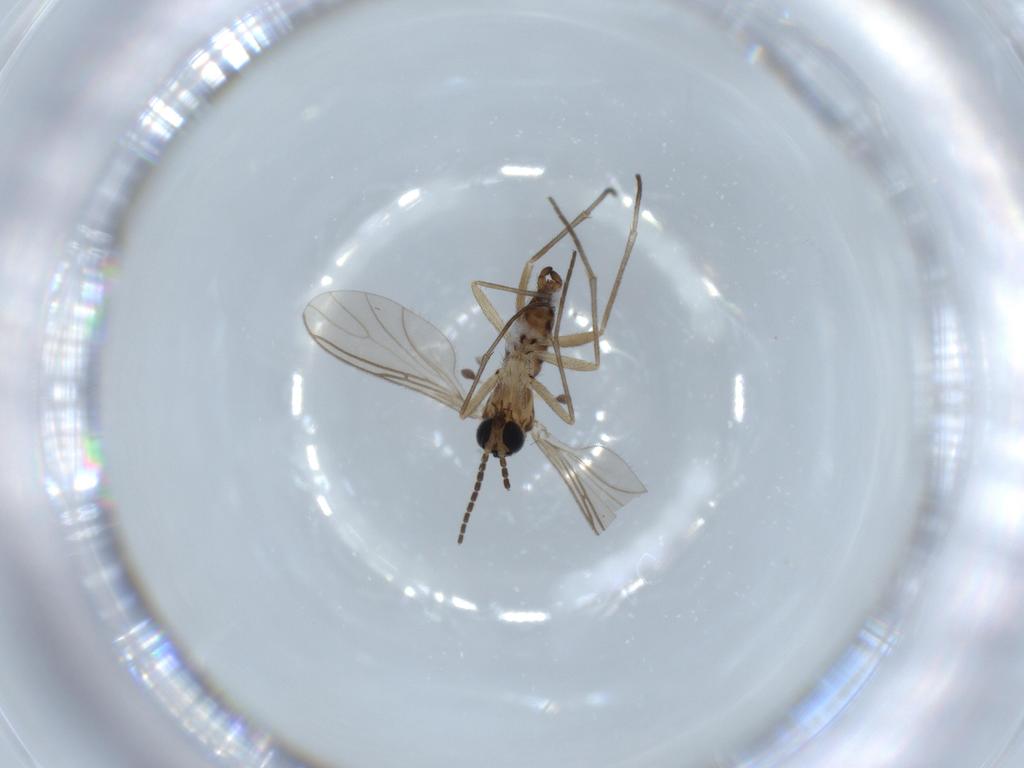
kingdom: Animalia
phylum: Arthropoda
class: Insecta
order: Diptera
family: Sciaridae
